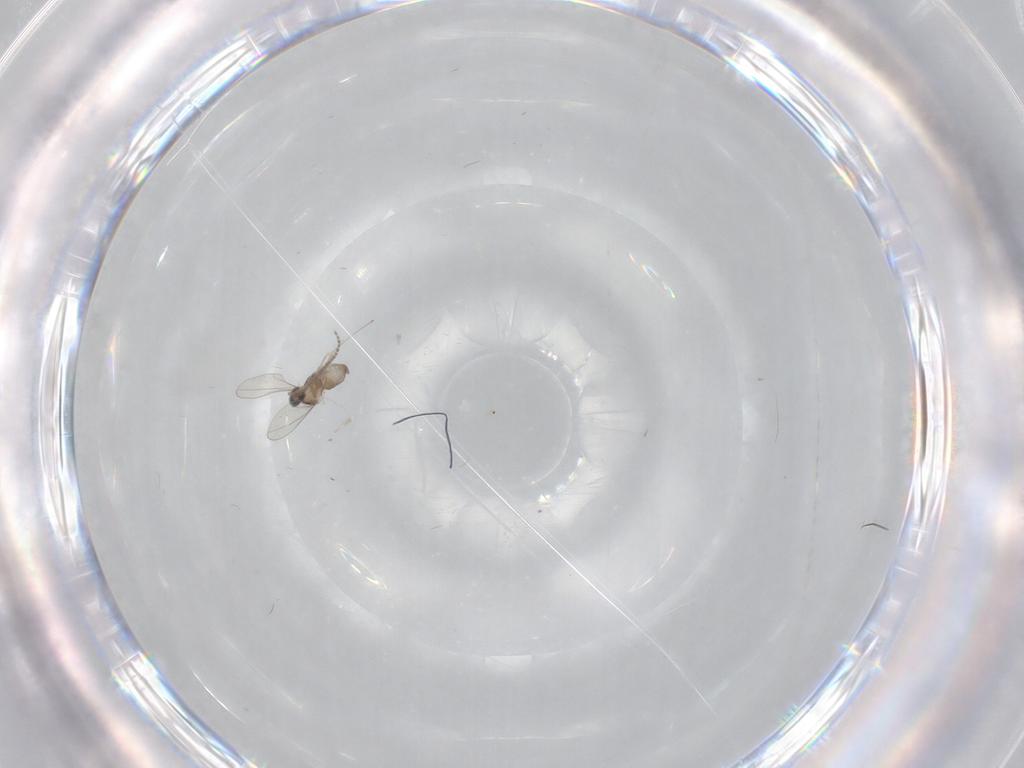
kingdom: Animalia
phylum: Arthropoda
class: Insecta
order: Diptera
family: Cecidomyiidae
